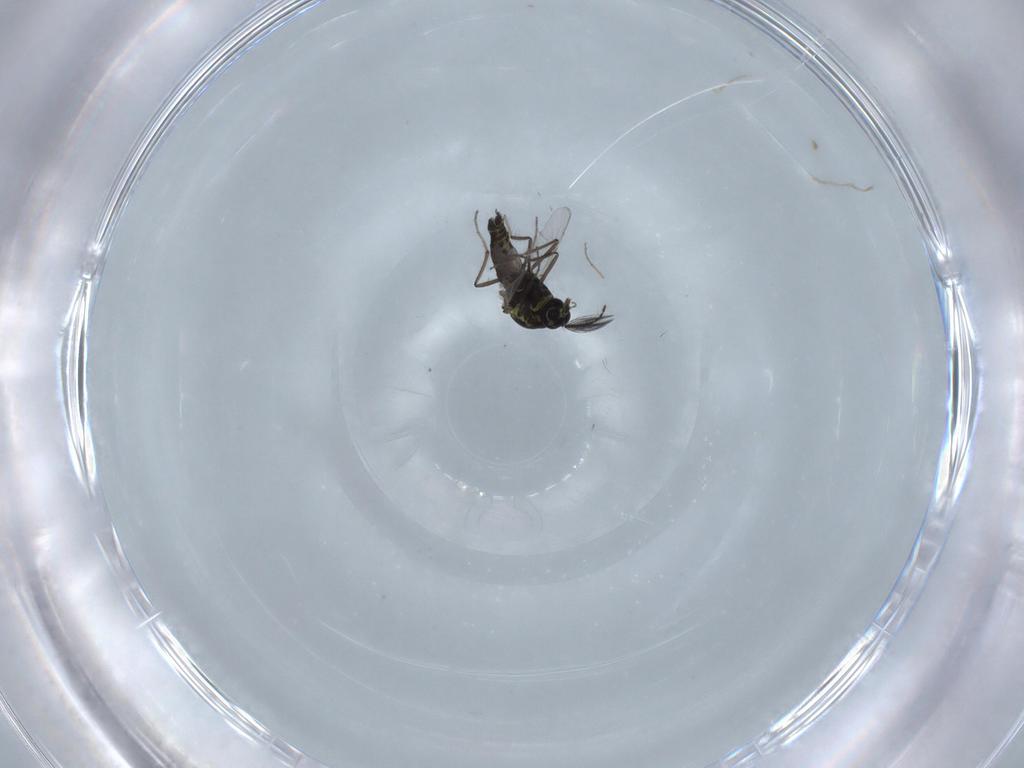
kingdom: Animalia
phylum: Arthropoda
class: Insecta
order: Diptera
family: Ceratopogonidae
